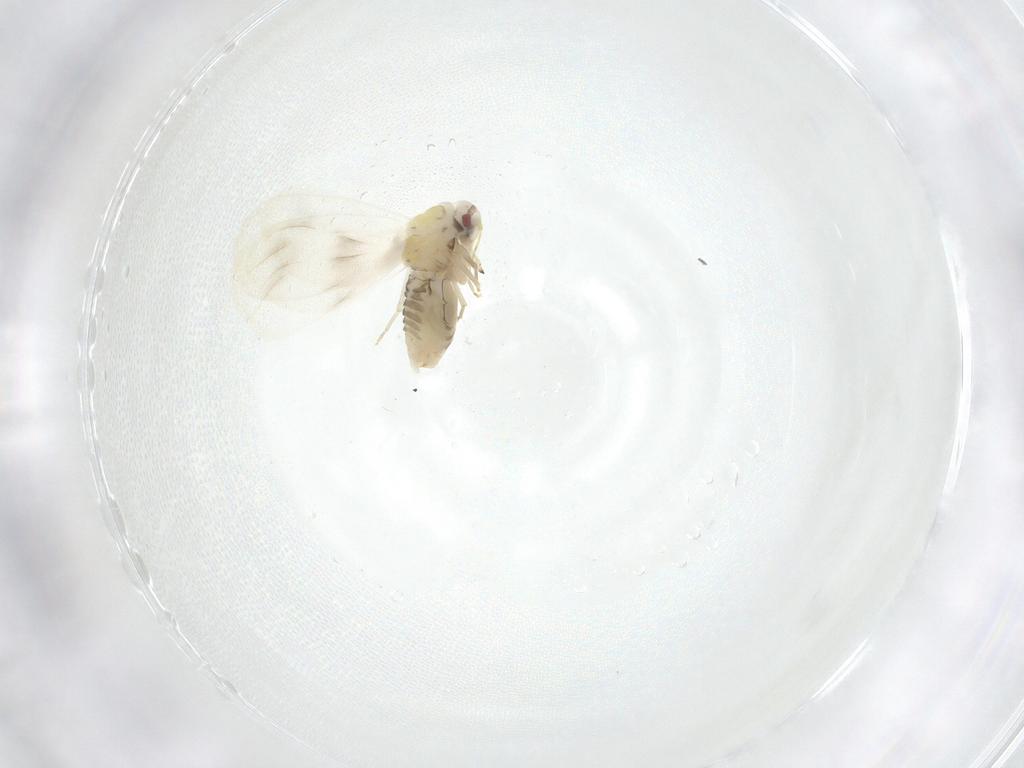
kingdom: Animalia
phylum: Arthropoda
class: Insecta
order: Hemiptera
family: Aleyrodidae
